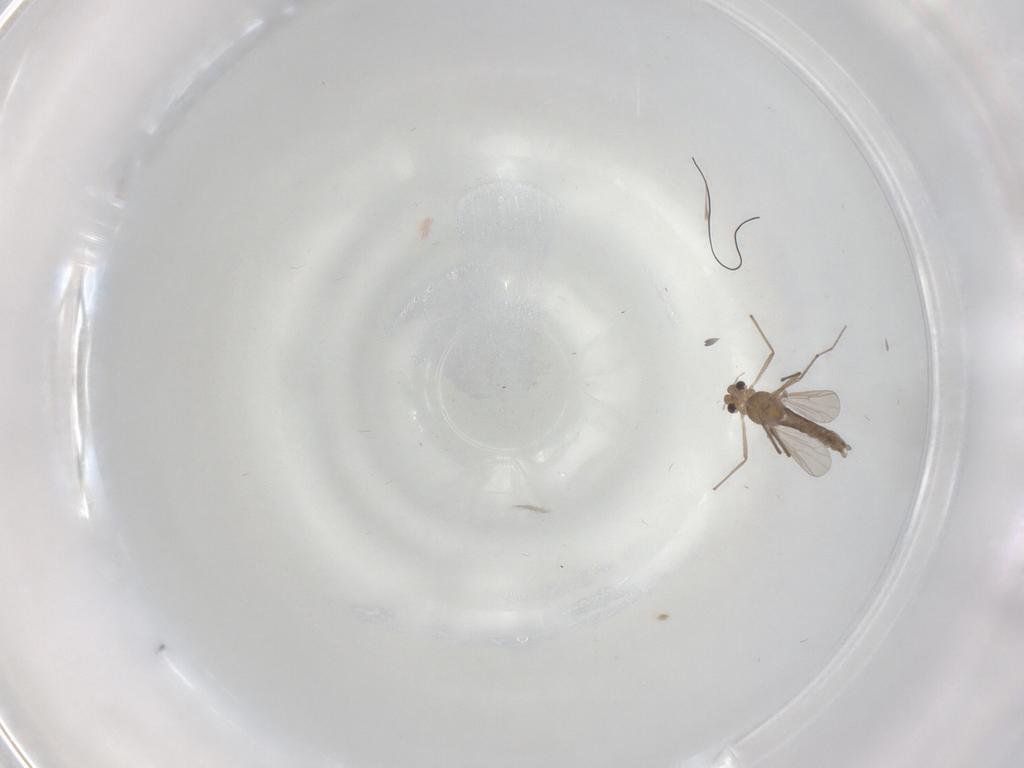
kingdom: Animalia
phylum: Arthropoda
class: Insecta
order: Diptera
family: Phoridae
